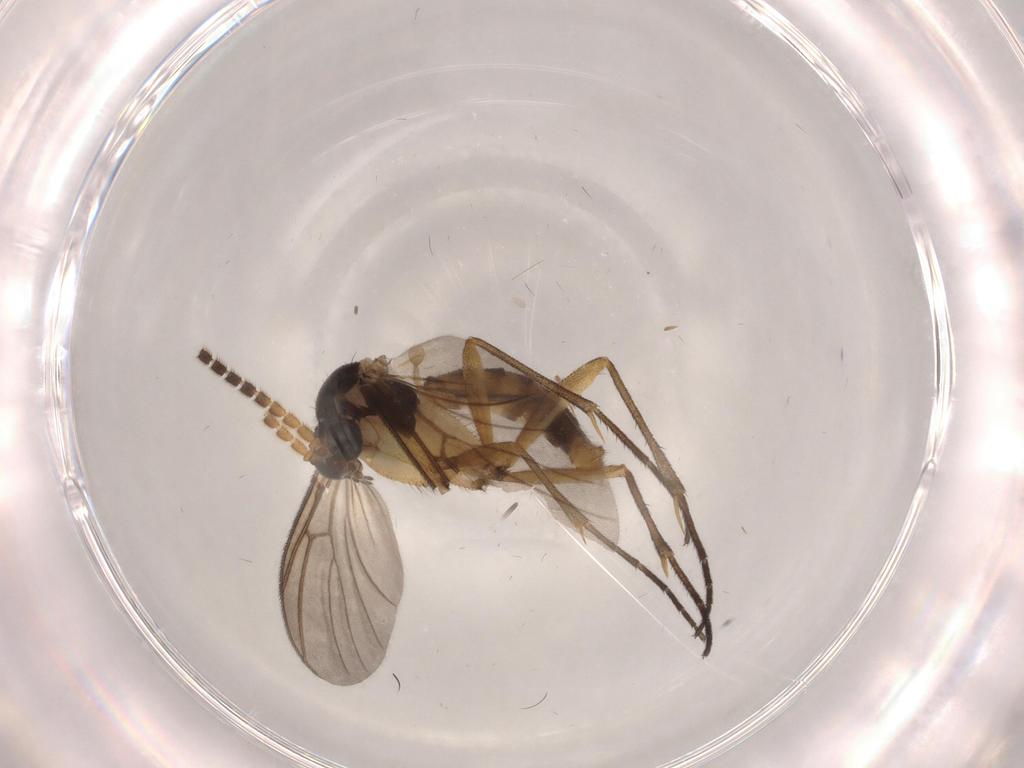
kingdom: Animalia
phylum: Arthropoda
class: Insecta
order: Diptera
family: Mycetophilidae
